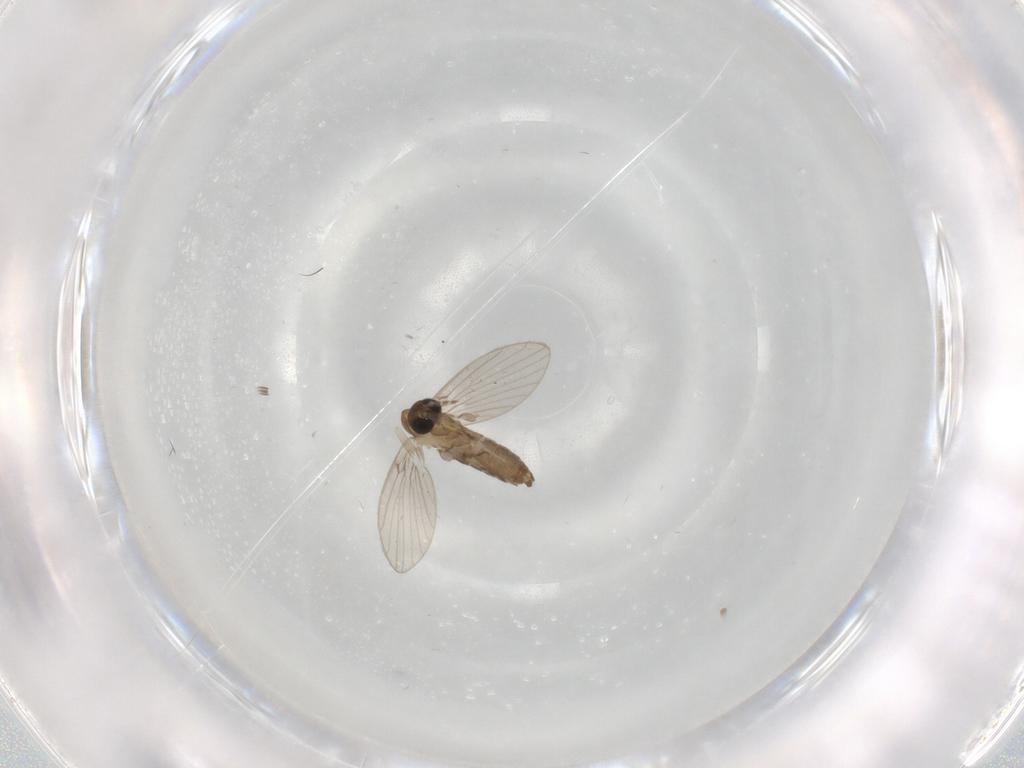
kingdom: Animalia
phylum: Arthropoda
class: Insecta
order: Diptera
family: Psychodidae
